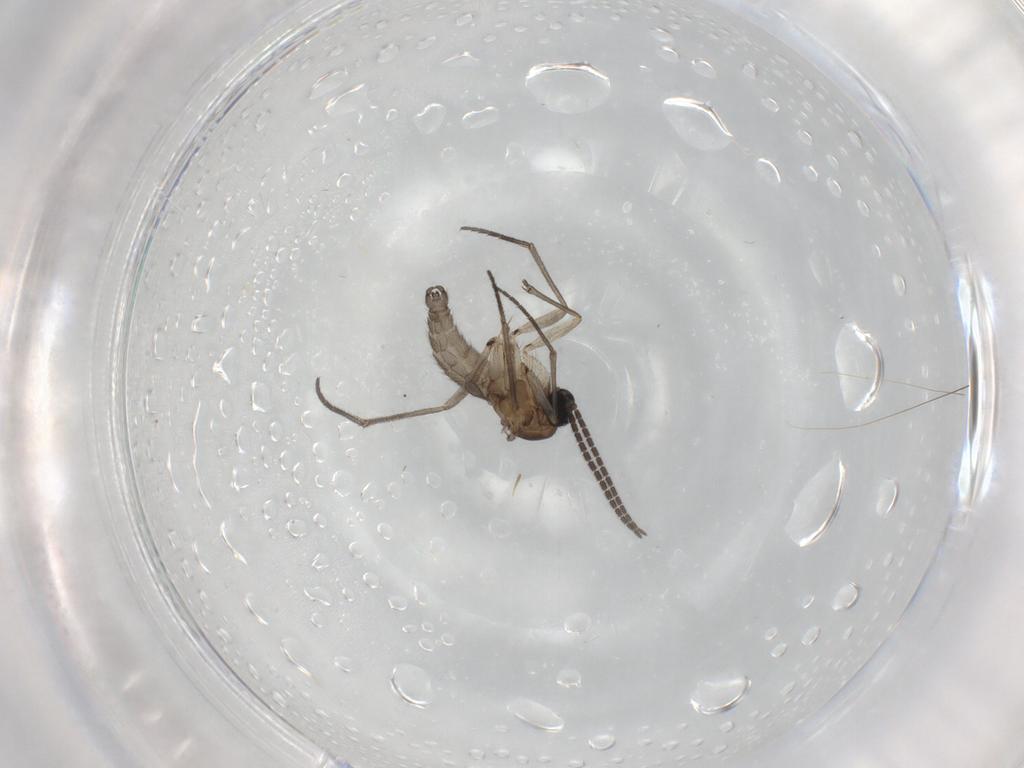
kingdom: Animalia
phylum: Arthropoda
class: Insecta
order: Diptera
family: Sciaridae
